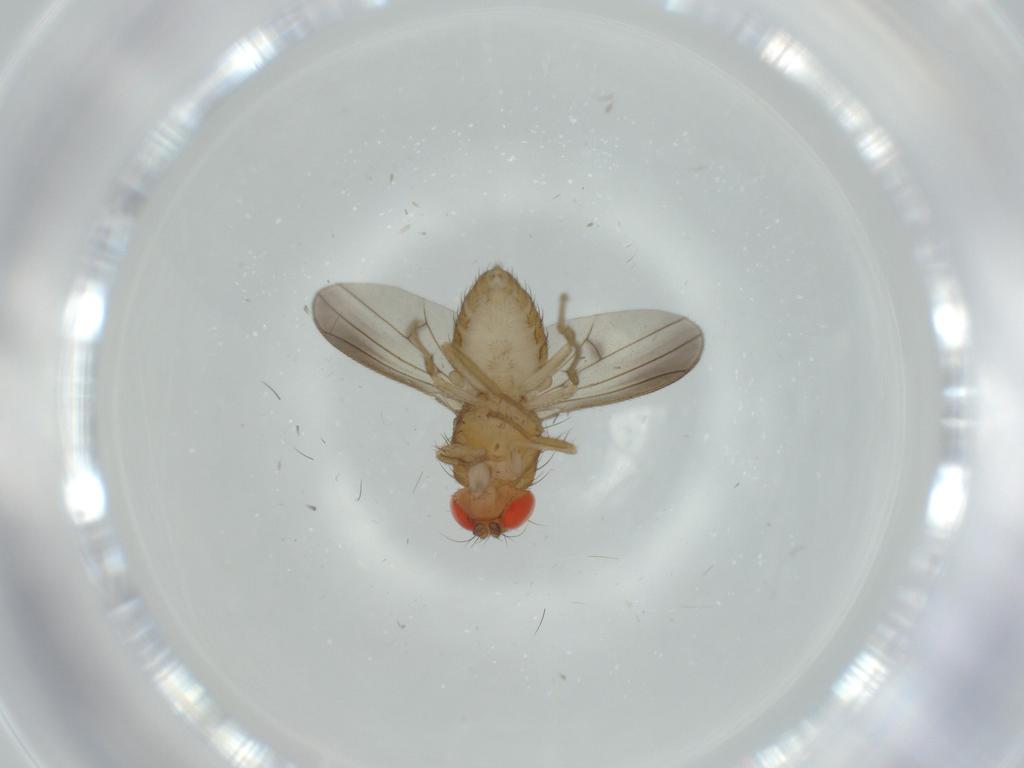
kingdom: Animalia
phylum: Arthropoda
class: Insecta
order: Diptera
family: Drosophilidae
